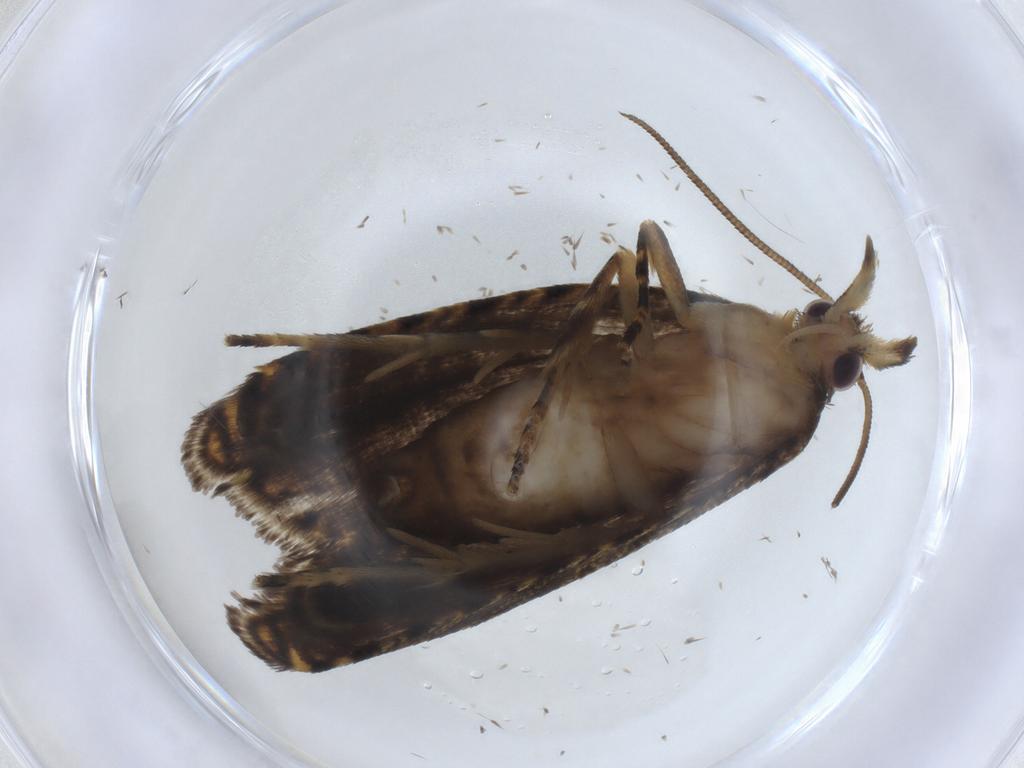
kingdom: Animalia
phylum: Arthropoda
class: Insecta
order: Lepidoptera
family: Tortricidae
